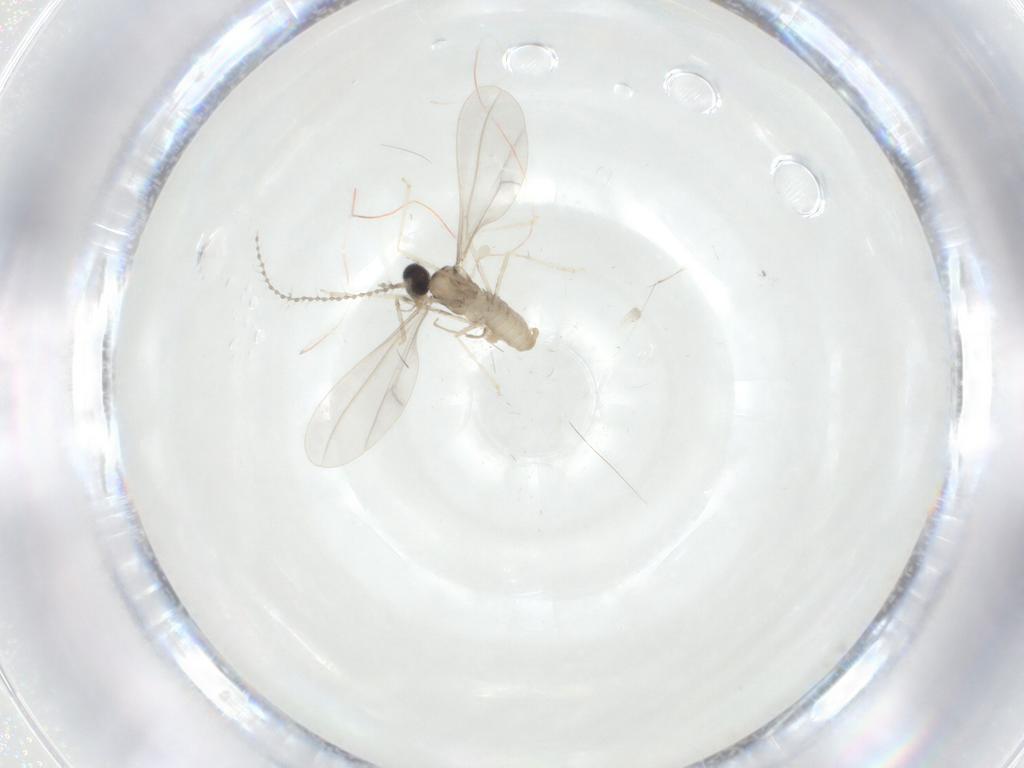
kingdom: Animalia
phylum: Arthropoda
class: Insecta
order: Diptera
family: Cecidomyiidae
